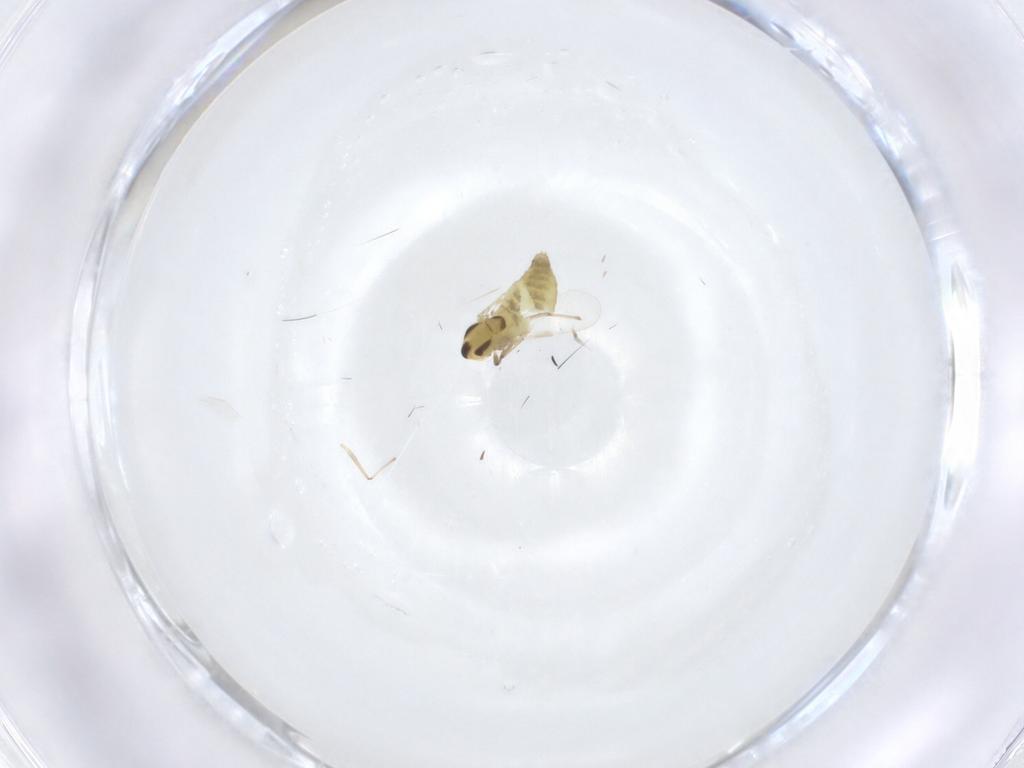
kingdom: Animalia
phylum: Arthropoda
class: Insecta
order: Diptera
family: Chironomidae
